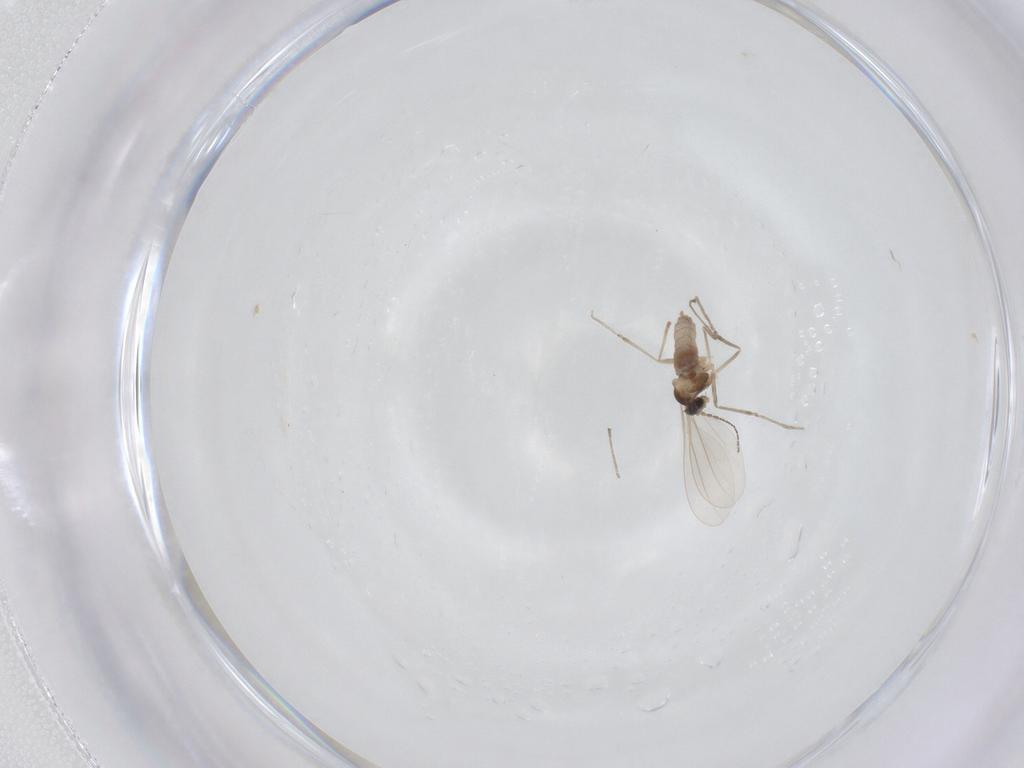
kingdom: Animalia
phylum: Arthropoda
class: Insecta
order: Diptera
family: Cecidomyiidae
